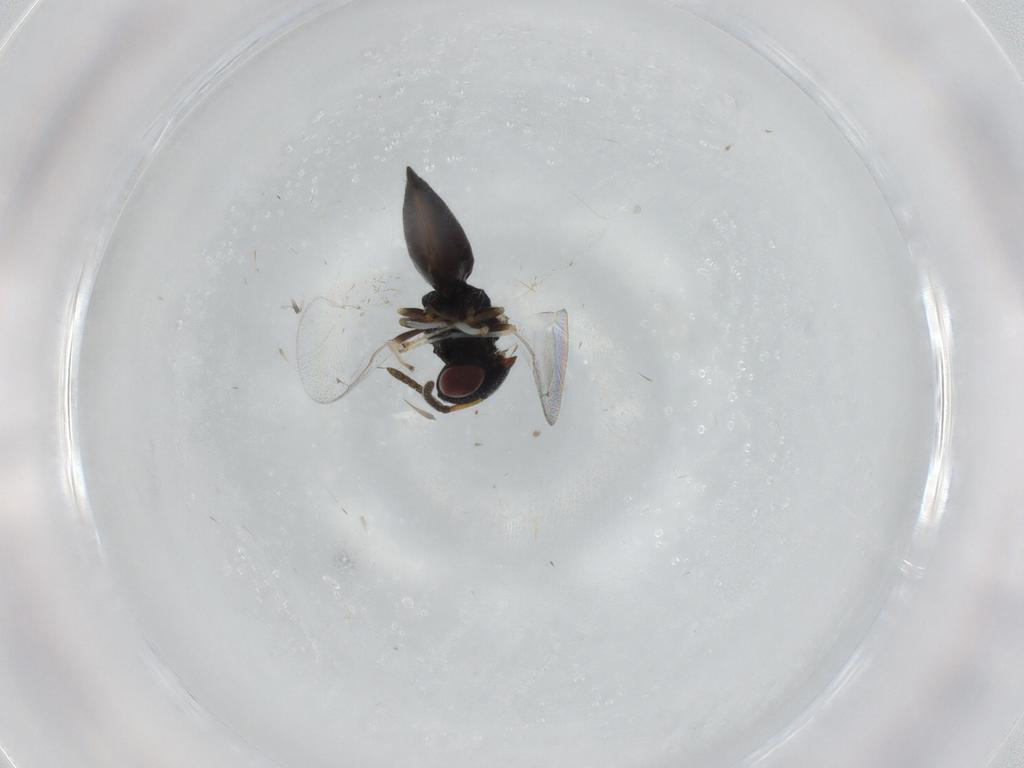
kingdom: Animalia
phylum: Arthropoda
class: Insecta
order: Hymenoptera
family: Pteromalidae
